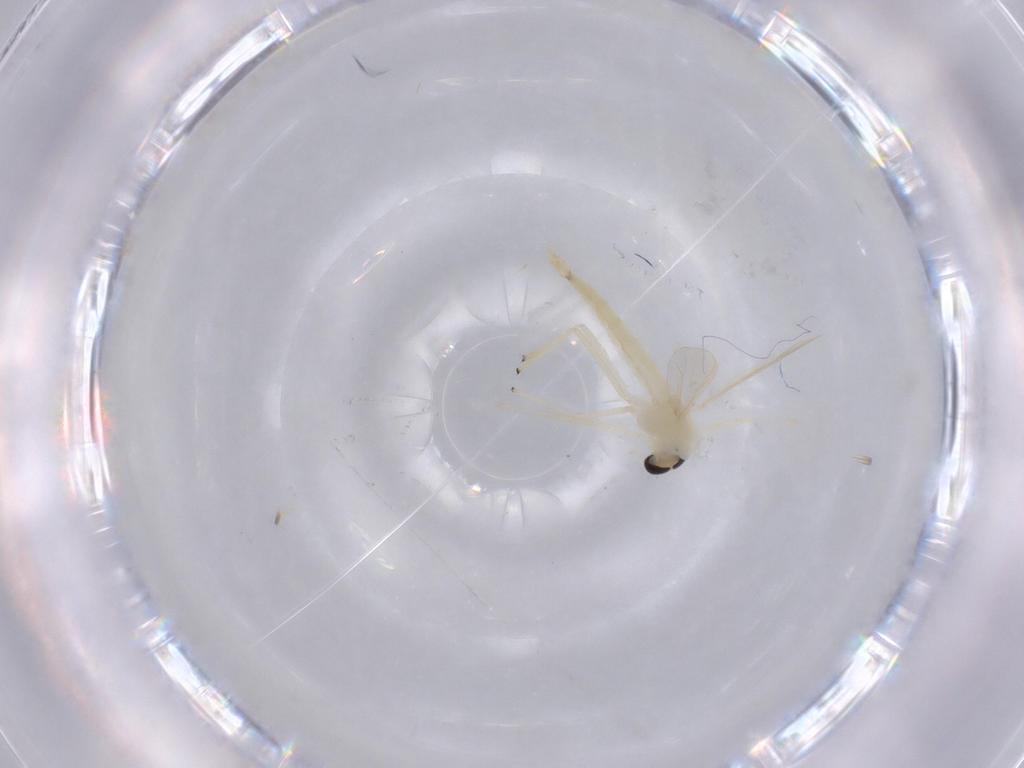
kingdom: Animalia
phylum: Arthropoda
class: Insecta
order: Diptera
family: Chironomidae
